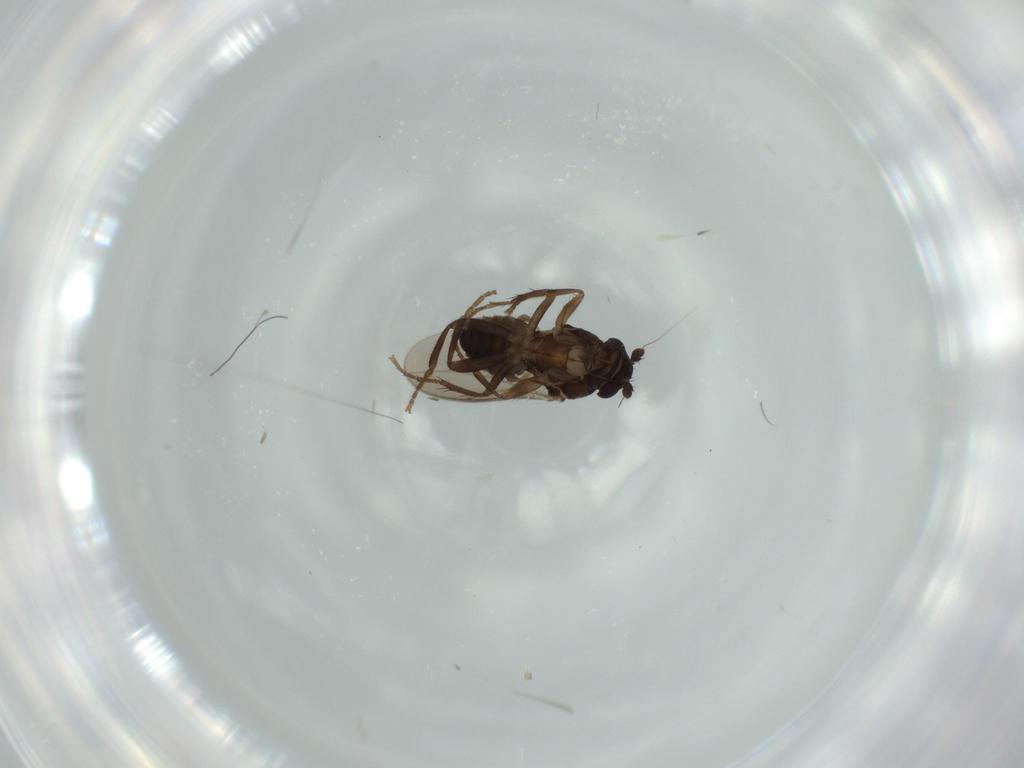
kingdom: Animalia
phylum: Arthropoda
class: Insecta
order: Diptera
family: Sphaeroceridae
